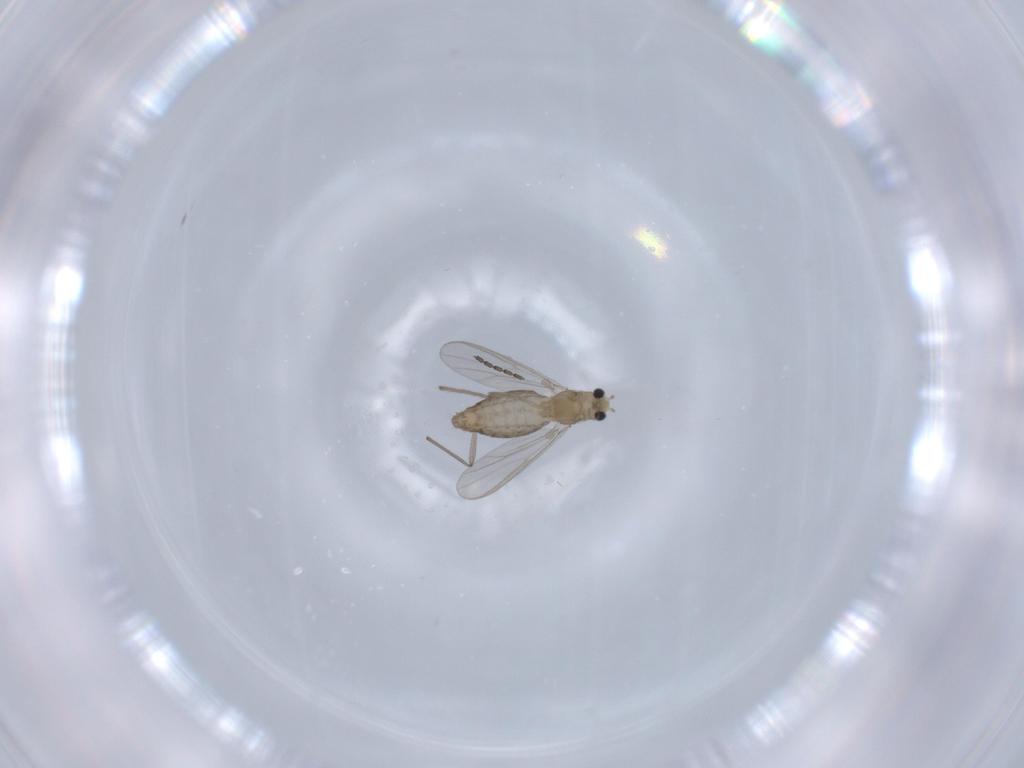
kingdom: Animalia
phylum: Arthropoda
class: Insecta
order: Diptera
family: Chironomidae
